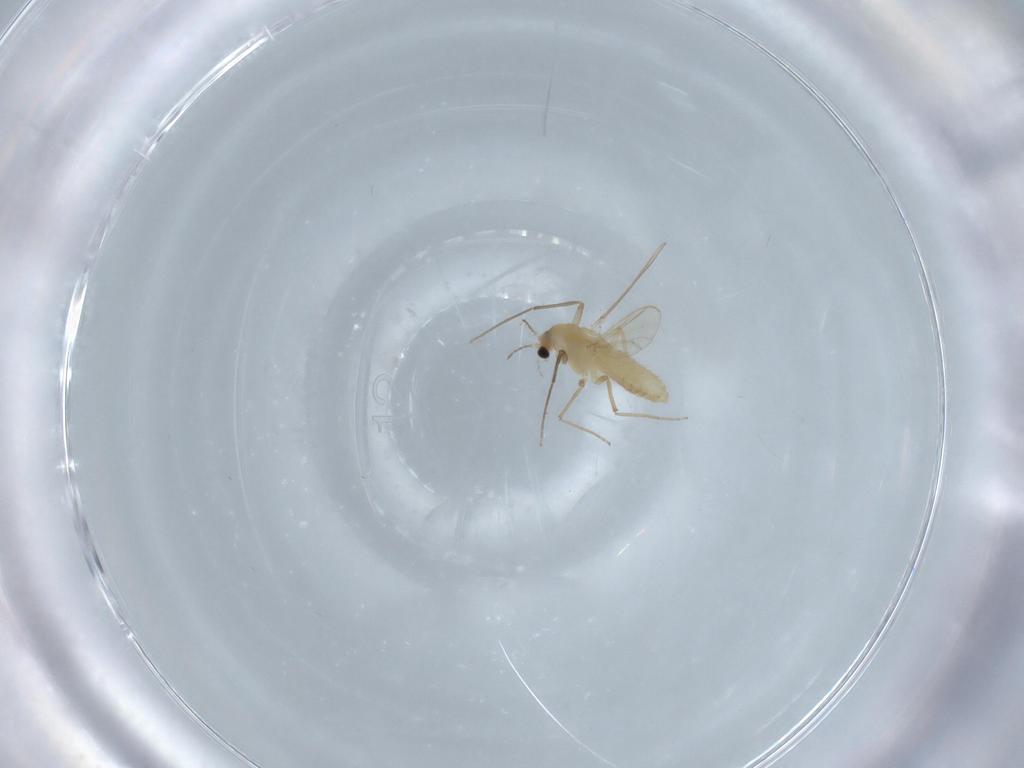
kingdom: Animalia
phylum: Arthropoda
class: Insecta
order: Diptera
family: Chironomidae
